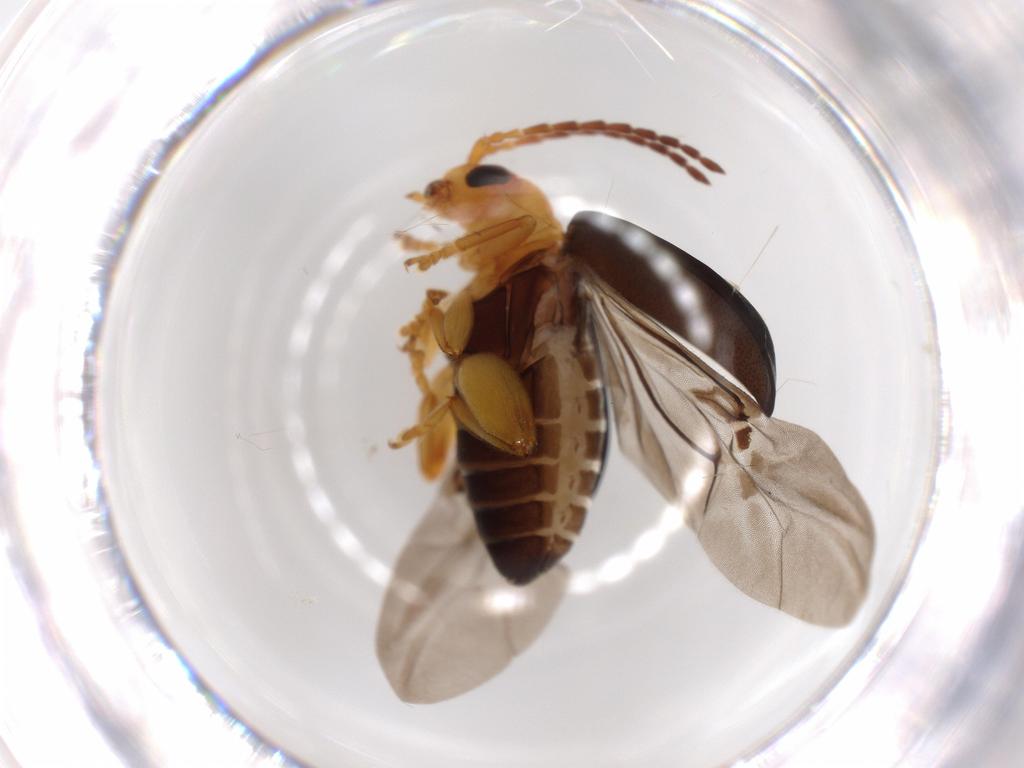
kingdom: Animalia
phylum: Arthropoda
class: Insecta
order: Coleoptera
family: Chrysomelidae
